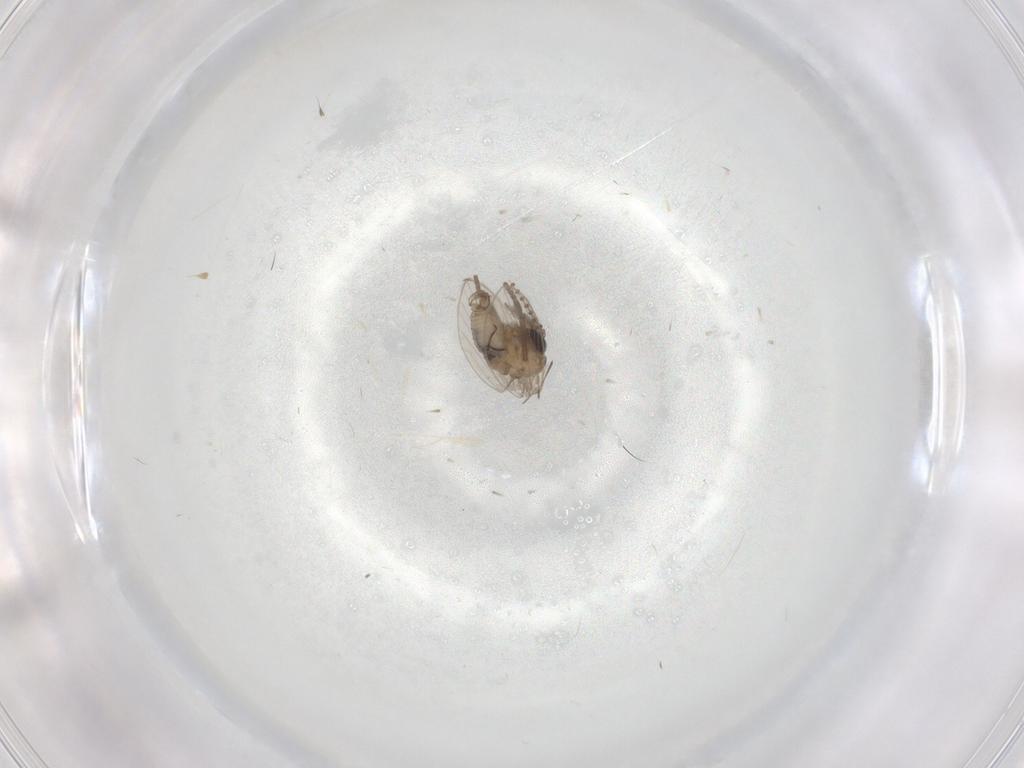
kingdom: Animalia
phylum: Arthropoda
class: Insecta
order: Diptera
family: Psychodidae
